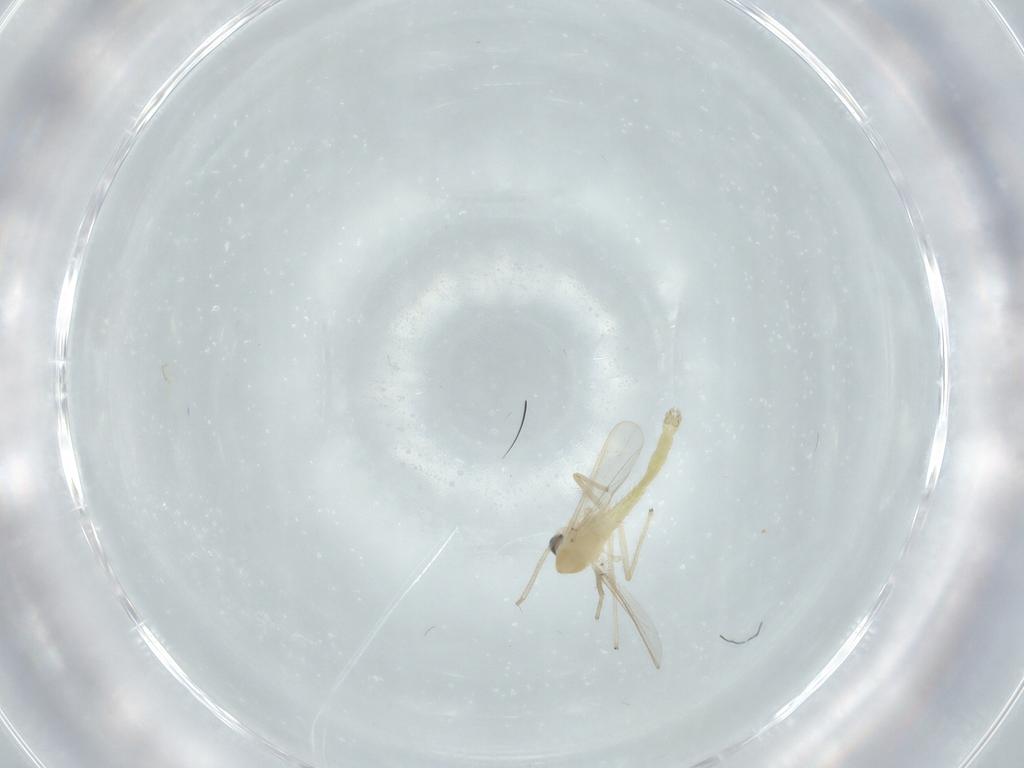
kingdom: Animalia
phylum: Arthropoda
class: Insecta
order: Diptera
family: Chironomidae
